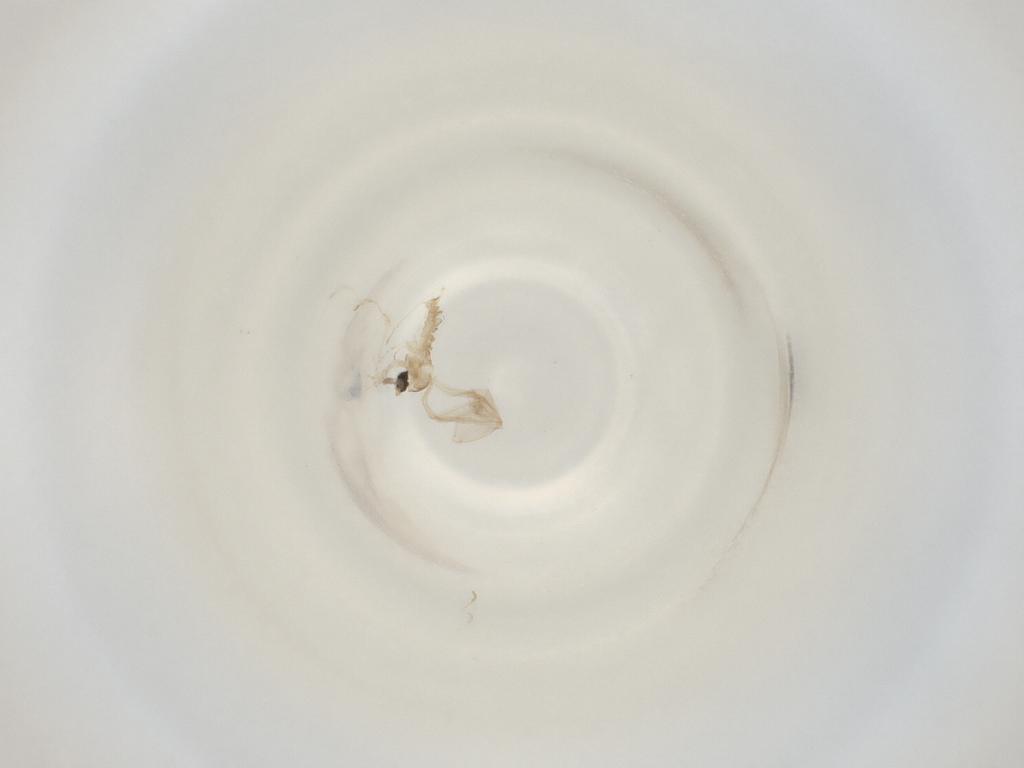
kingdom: Animalia
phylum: Arthropoda
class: Insecta
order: Diptera
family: Cecidomyiidae
